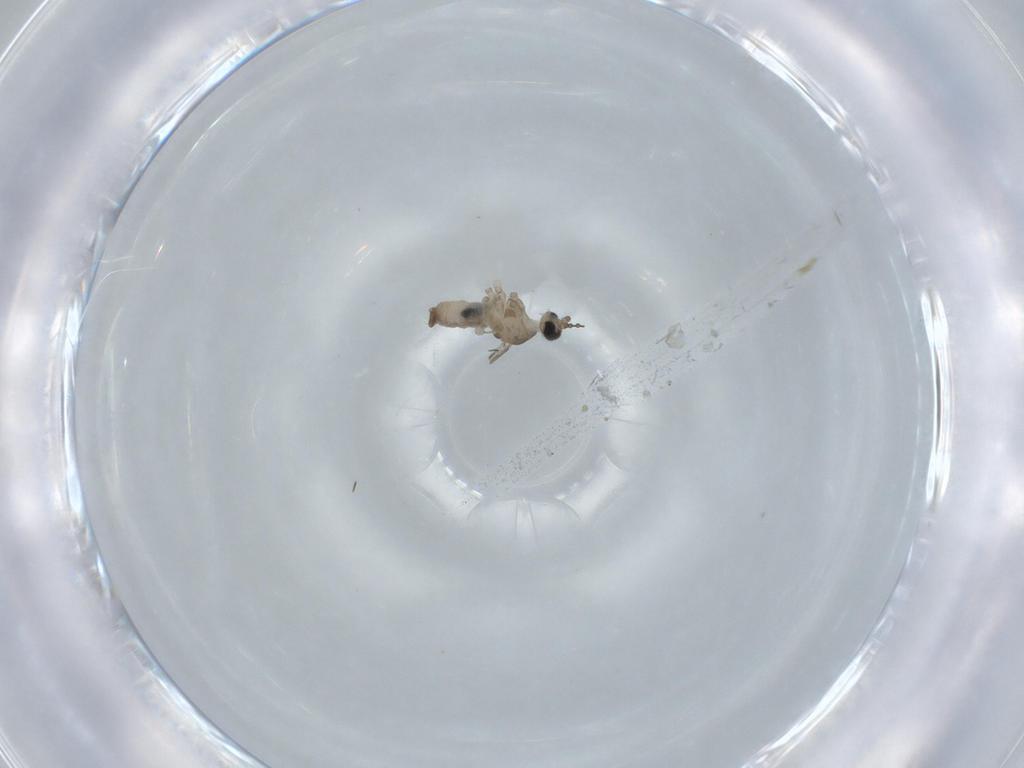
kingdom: Animalia
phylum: Arthropoda
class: Insecta
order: Diptera
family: Cecidomyiidae
